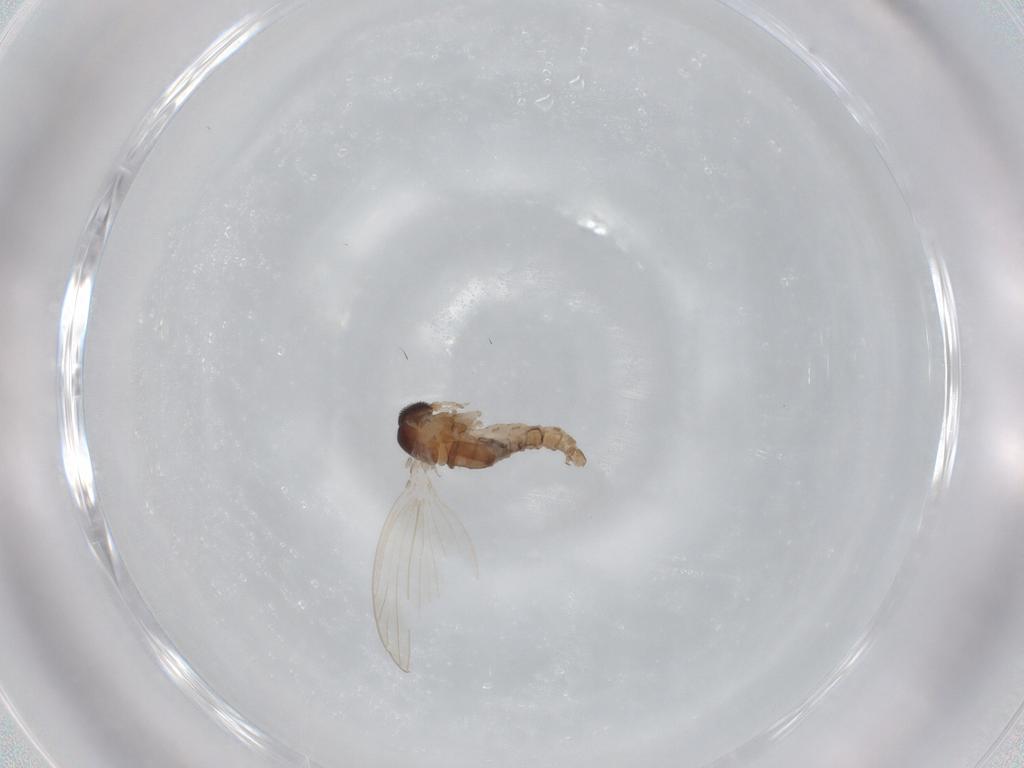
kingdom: Animalia
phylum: Arthropoda
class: Insecta
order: Diptera
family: Psychodidae
